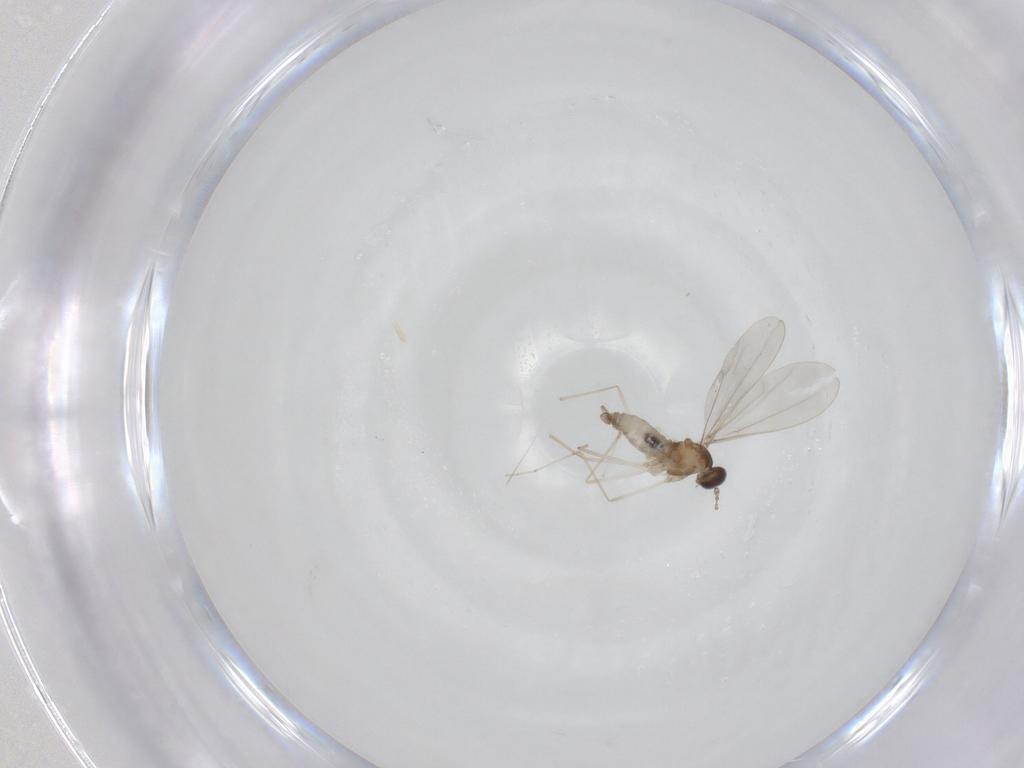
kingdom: Animalia
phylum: Arthropoda
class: Insecta
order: Diptera
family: Cecidomyiidae
